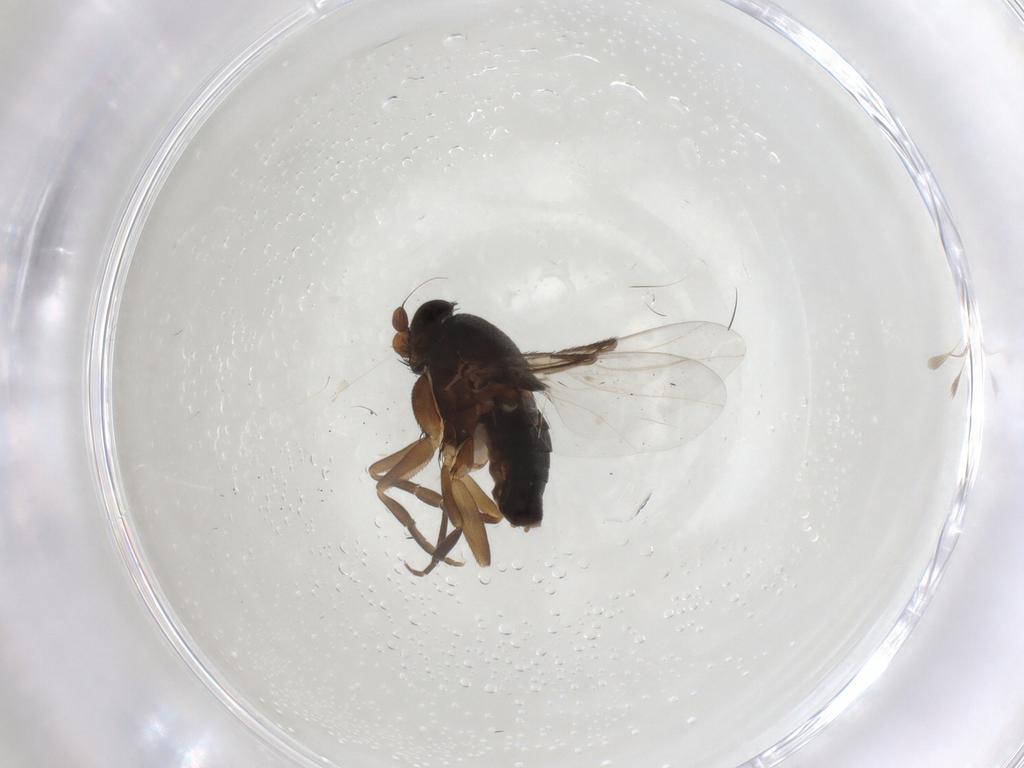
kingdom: Animalia
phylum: Arthropoda
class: Insecta
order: Diptera
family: Phoridae
